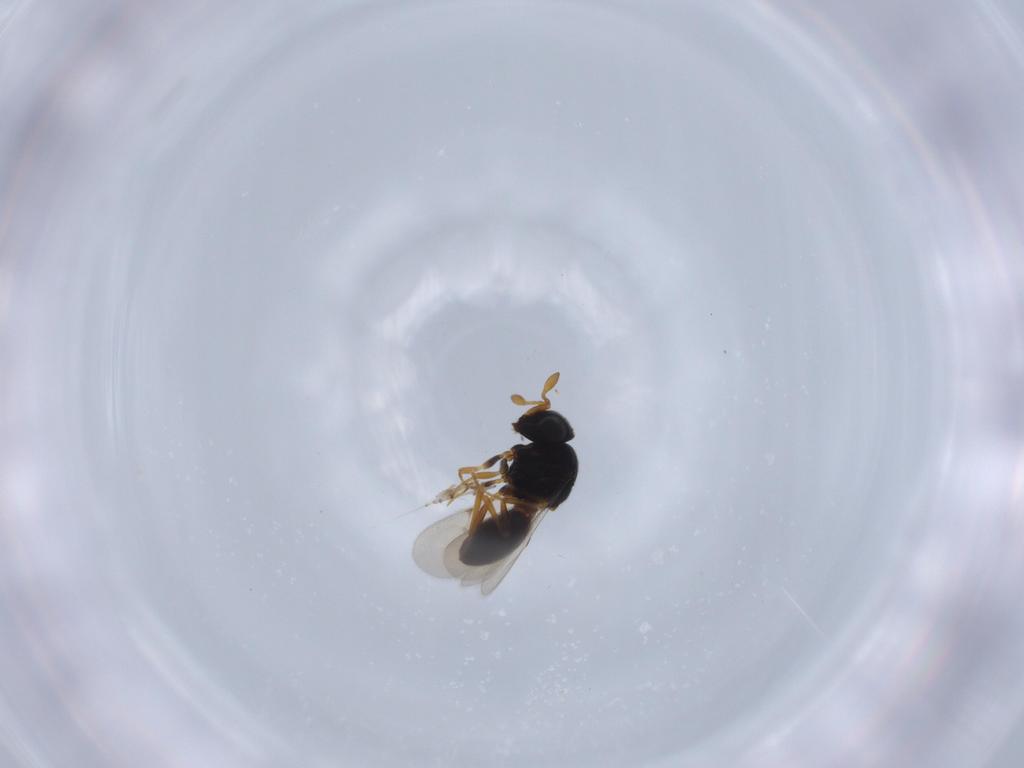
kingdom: Animalia
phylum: Arthropoda
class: Insecta
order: Hymenoptera
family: Scelionidae
